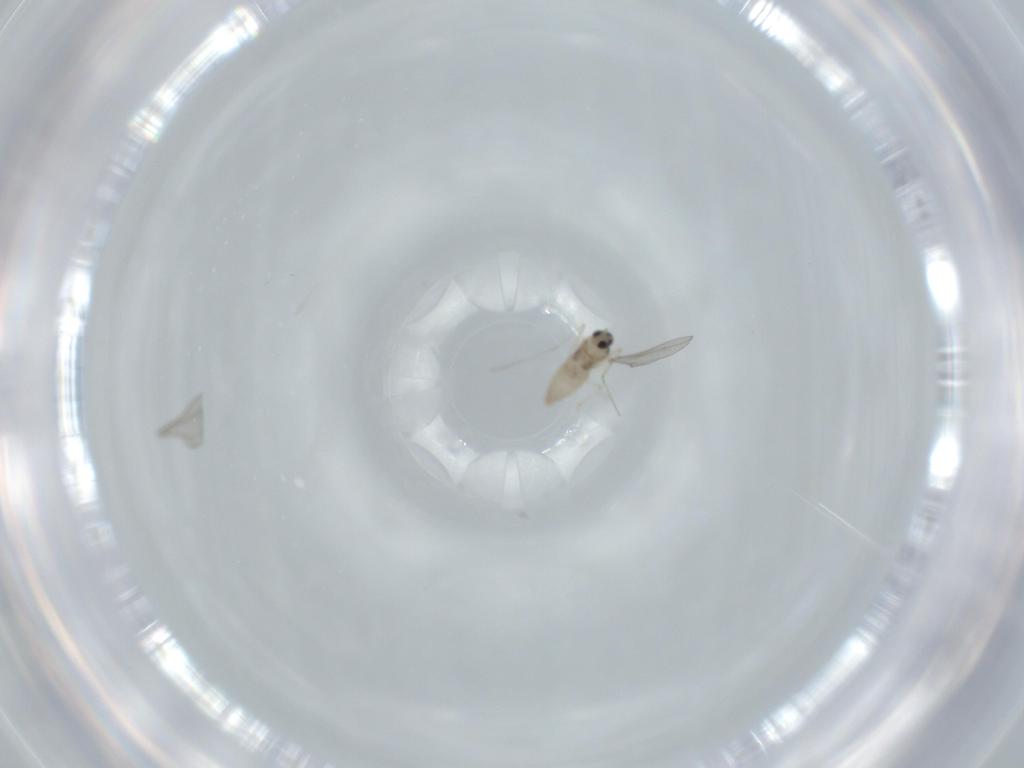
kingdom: Animalia
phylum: Arthropoda
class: Insecta
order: Diptera
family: Cecidomyiidae
